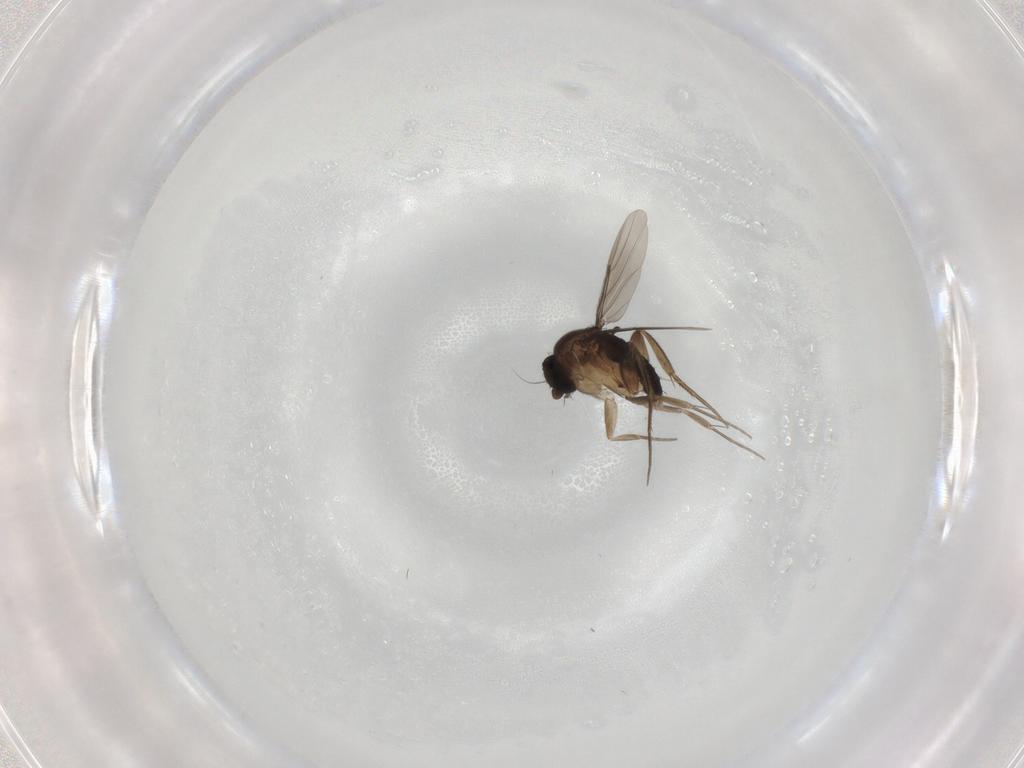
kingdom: Animalia
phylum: Arthropoda
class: Insecta
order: Diptera
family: Phoridae
